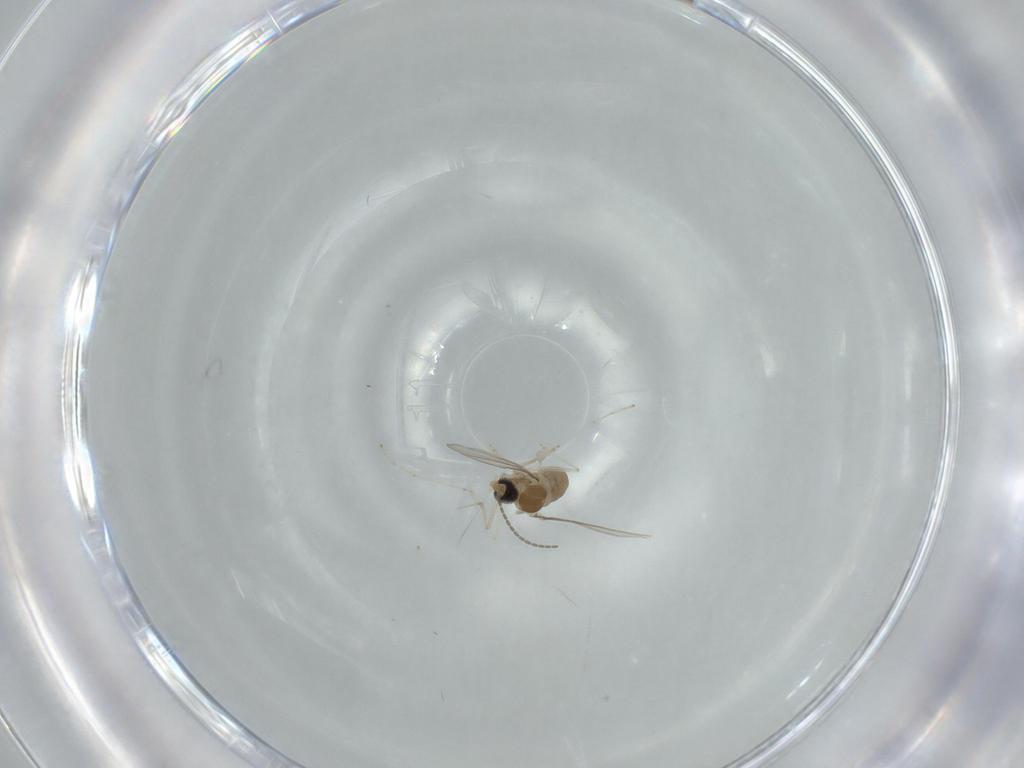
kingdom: Animalia
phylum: Arthropoda
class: Insecta
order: Diptera
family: Cecidomyiidae
